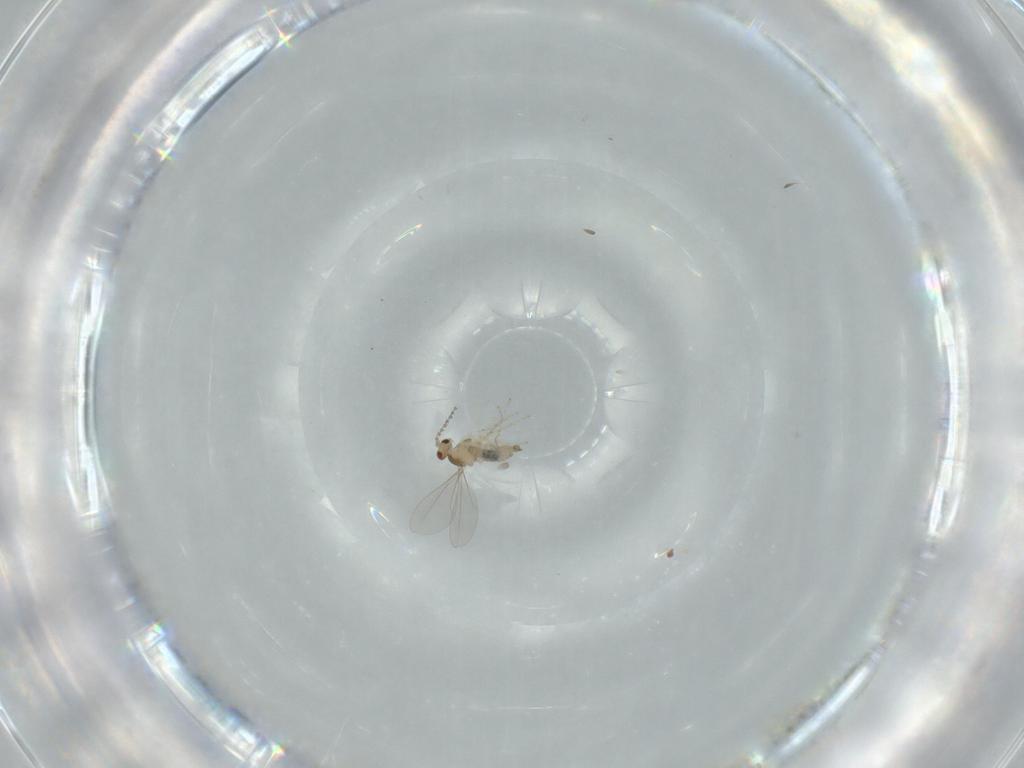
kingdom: Animalia
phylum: Arthropoda
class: Insecta
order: Diptera
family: Cecidomyiidae
